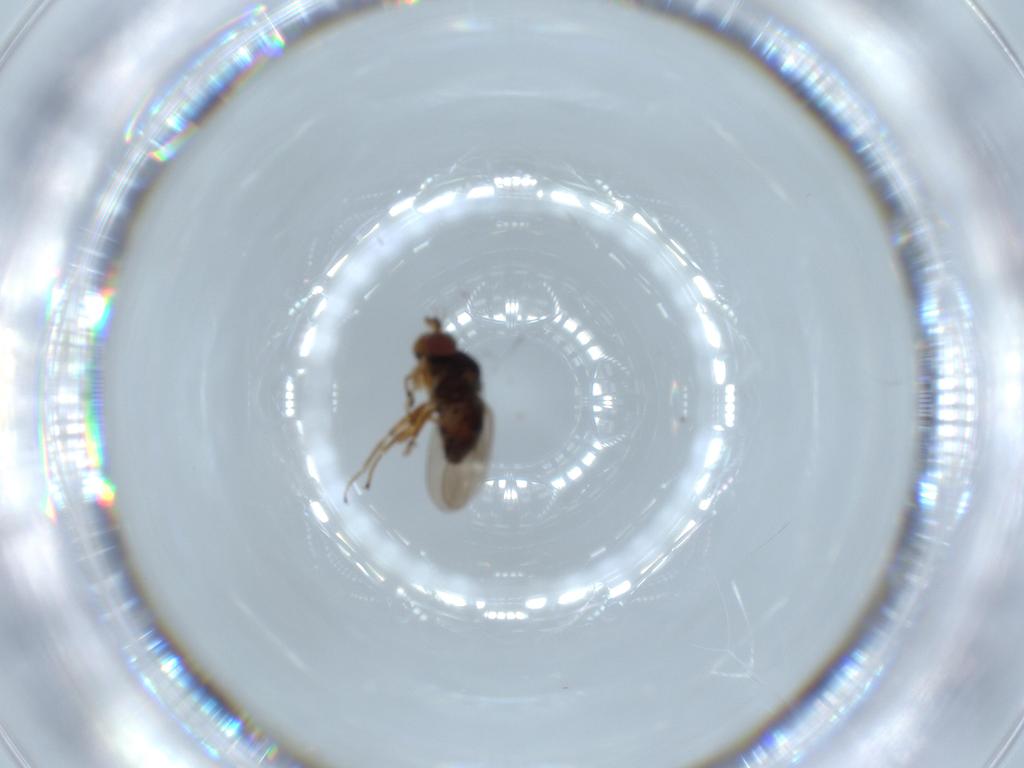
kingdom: Animalia
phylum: Arthropoda
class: Insecta
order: Diptera
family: Ephydridae
